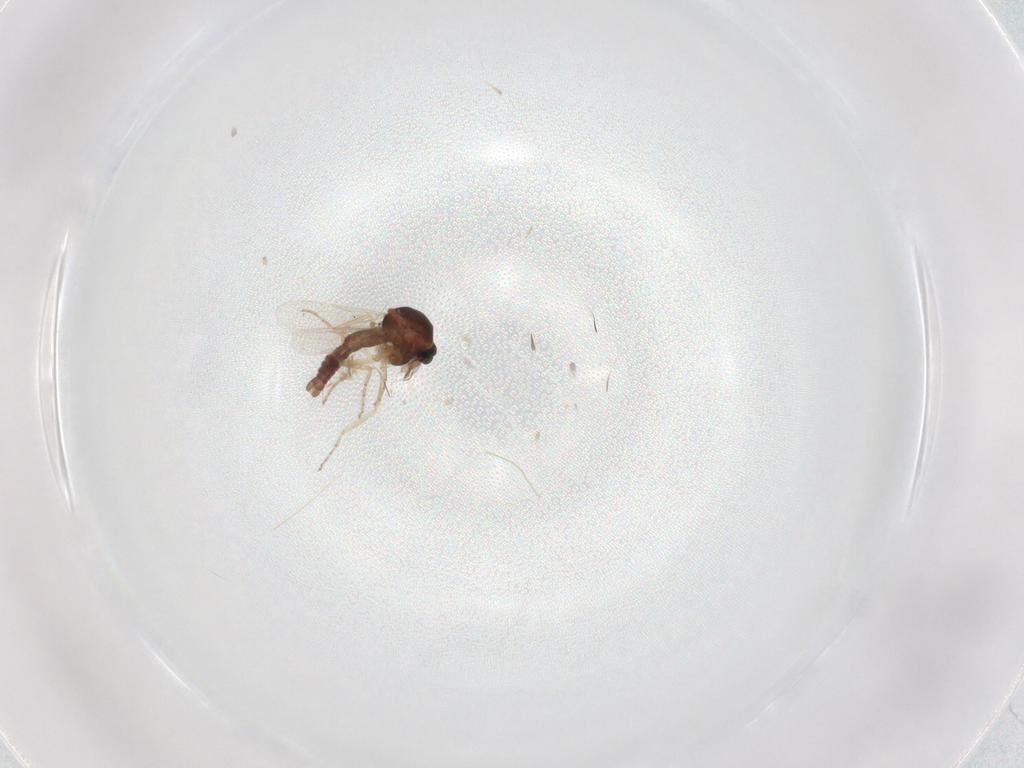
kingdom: Animalia
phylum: Arthropoda
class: Insecta
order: Diptera
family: Ceratopogonidae
